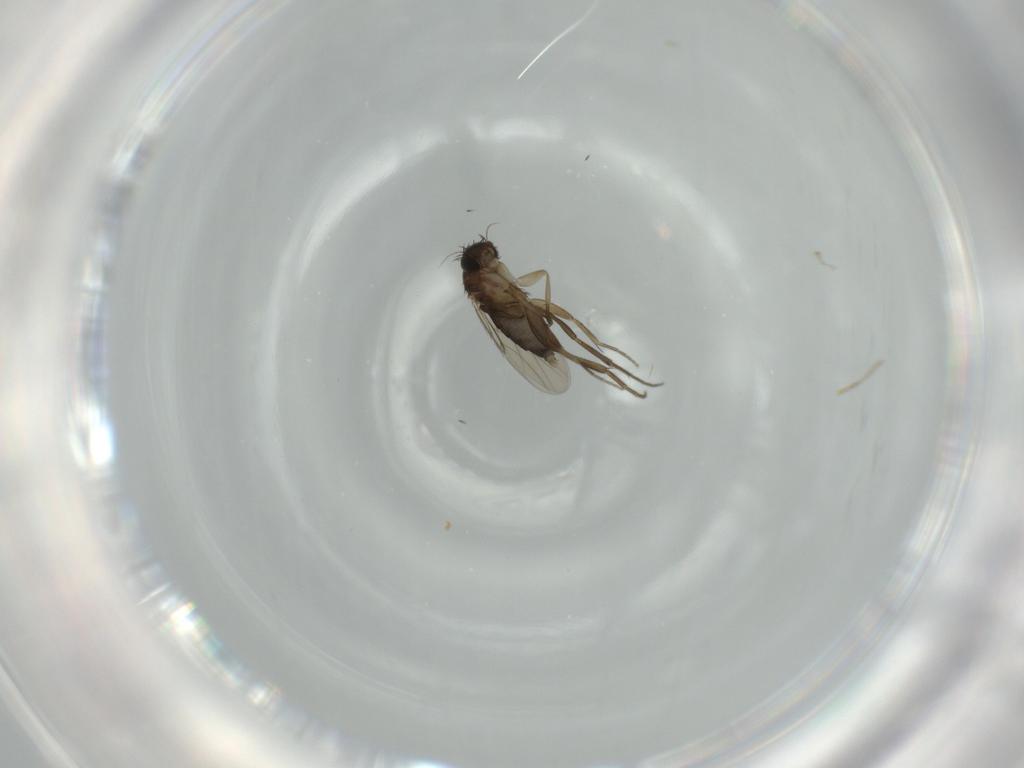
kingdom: Animalia
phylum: Arthropoda
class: Insecta
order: Diptera
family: Phoridae
